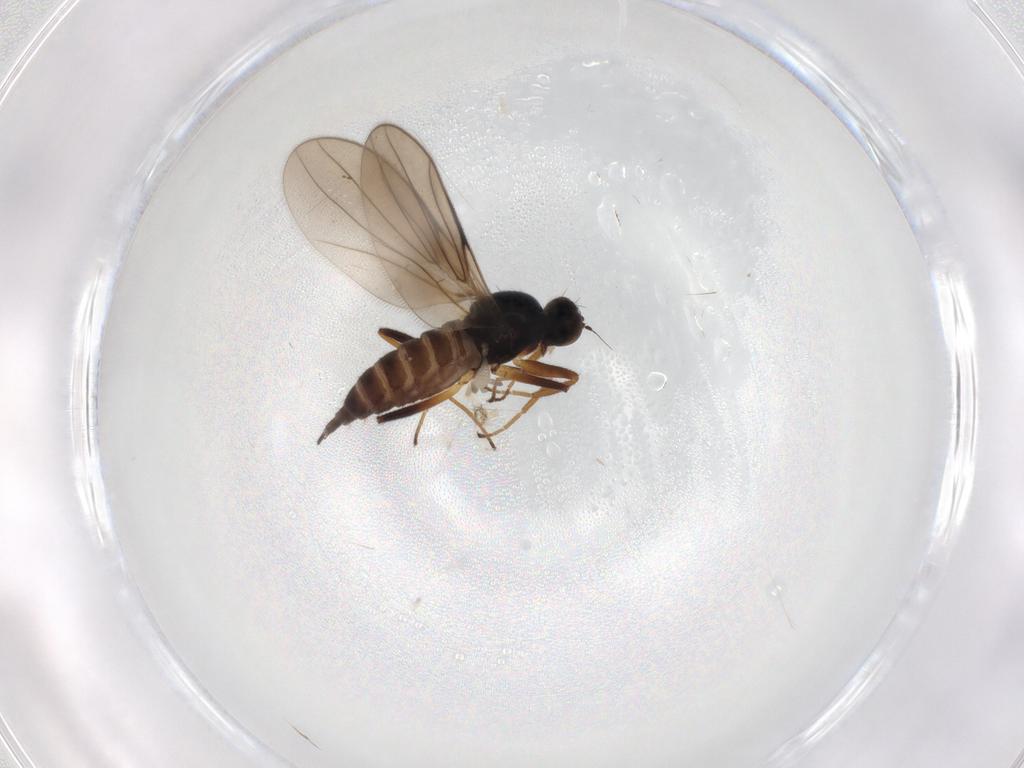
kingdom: Animalia
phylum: Arthropoda
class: Insecta
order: Diptera
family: Hybotidae
